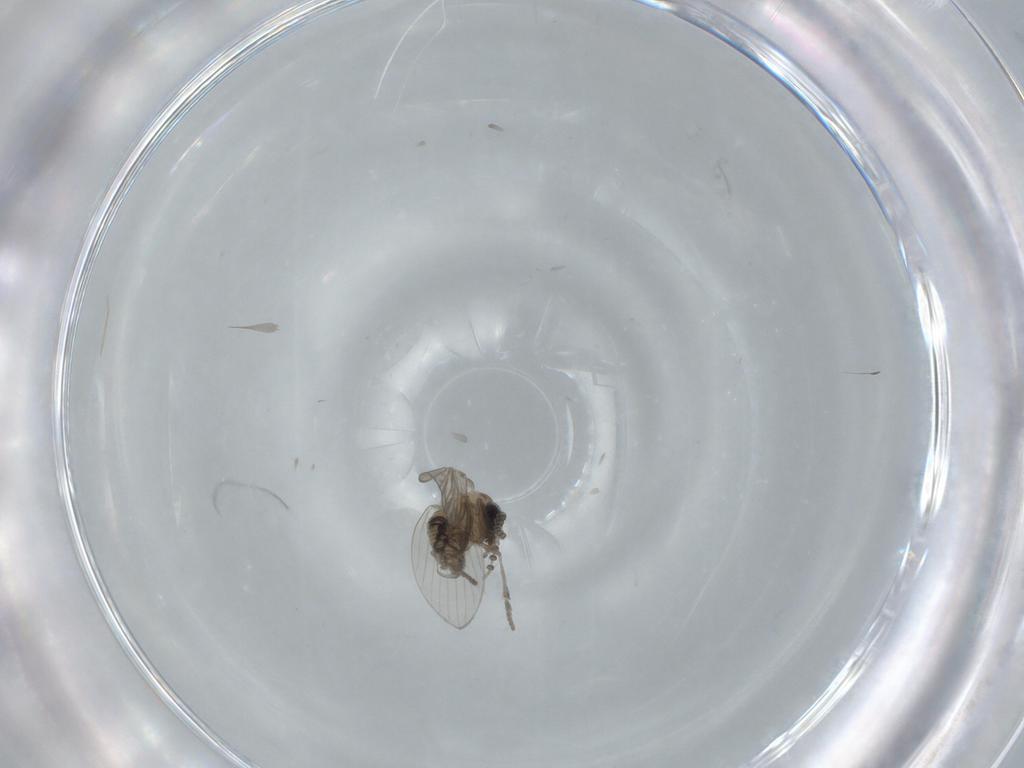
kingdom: Animalia
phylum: Arthropoda
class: Insecta
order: Diptera
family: Psychodidae
